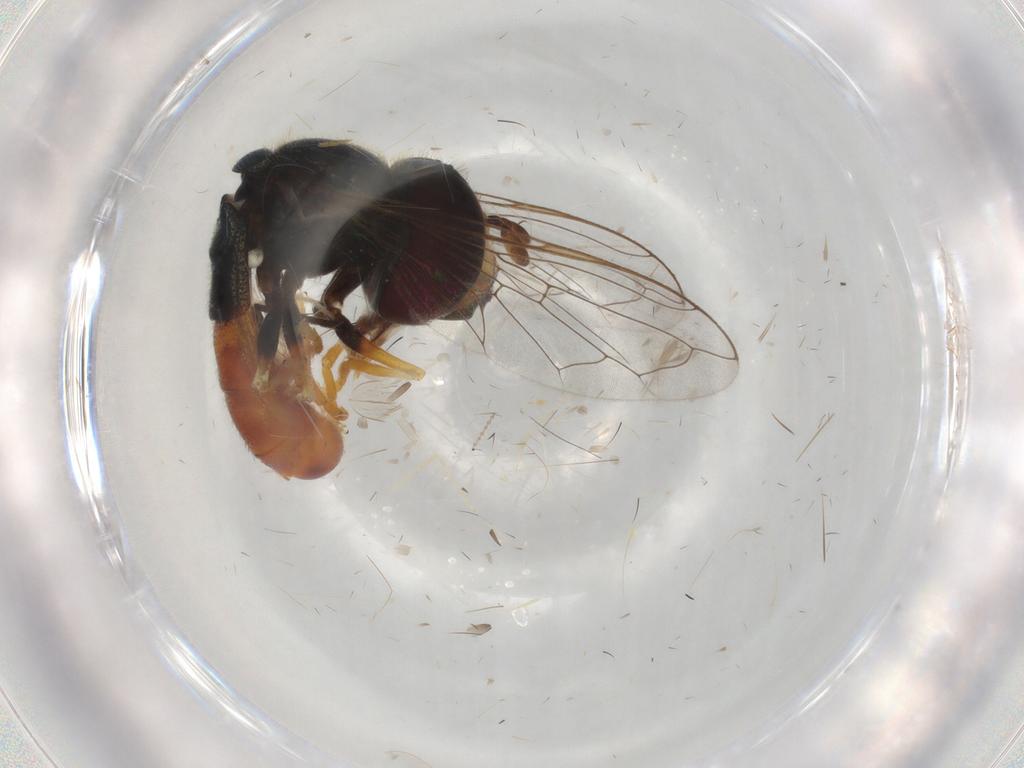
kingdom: Animalia
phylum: Arthropoda
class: Insecta
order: Diptera
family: Syrphidae
